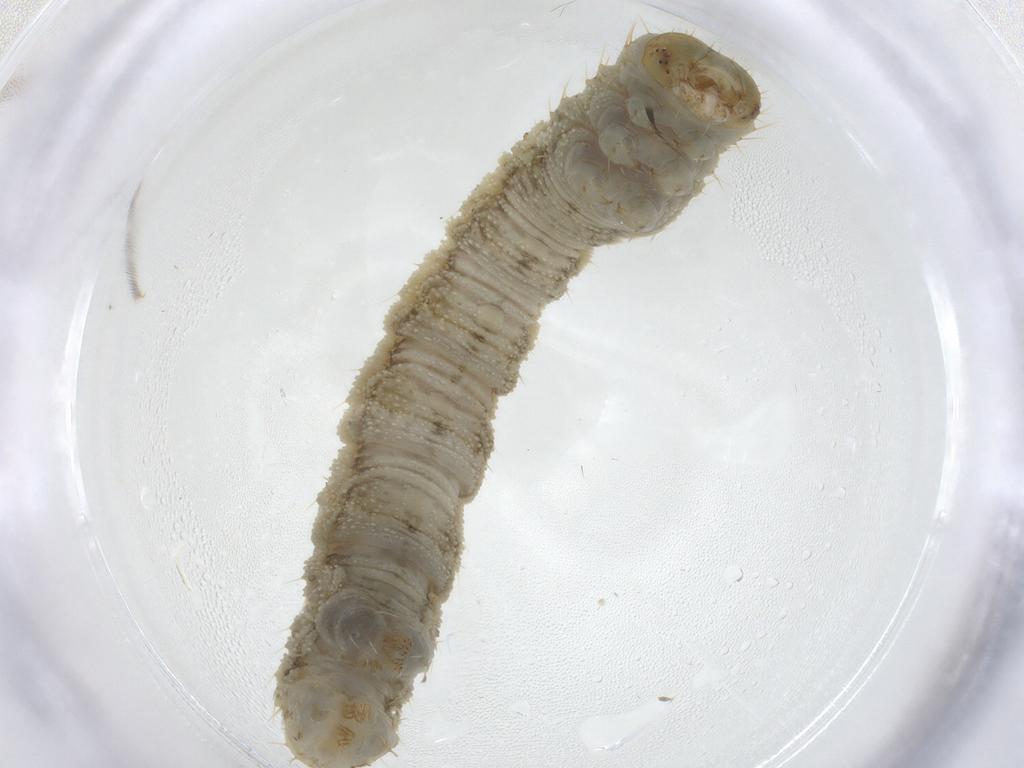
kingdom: Animalia
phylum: Arthropoda
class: Insecta
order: Lepidoptera
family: Geometridae
